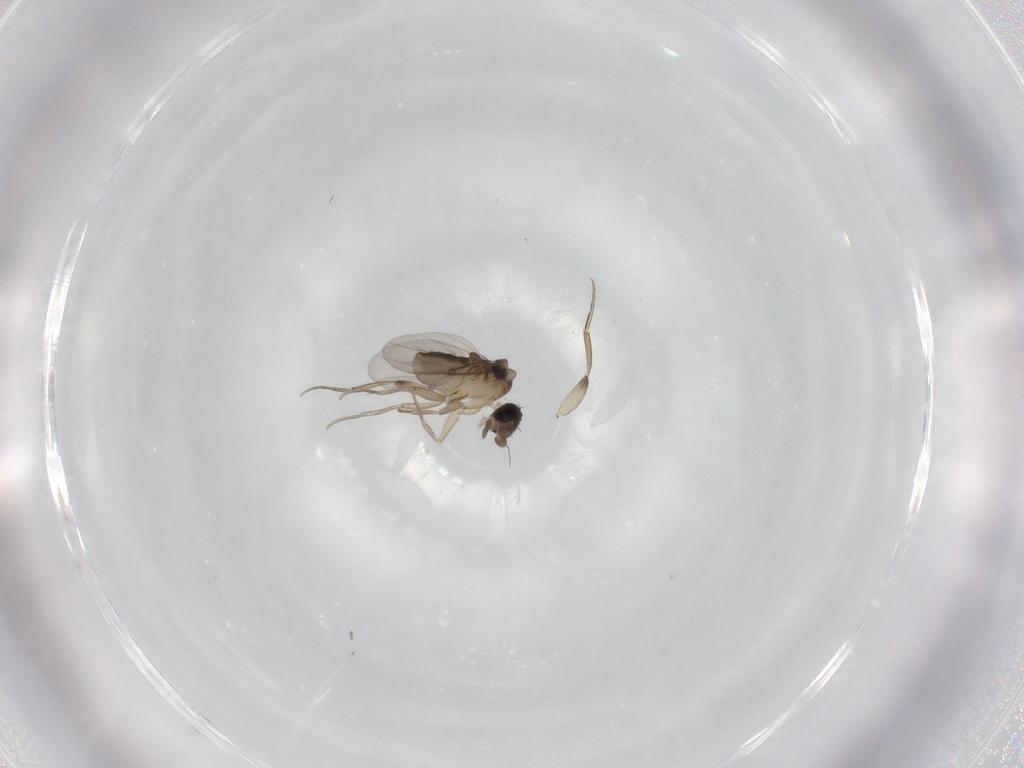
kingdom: Animalia
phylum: Arthropoda
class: Insecta
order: Diptera
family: Phoridae
